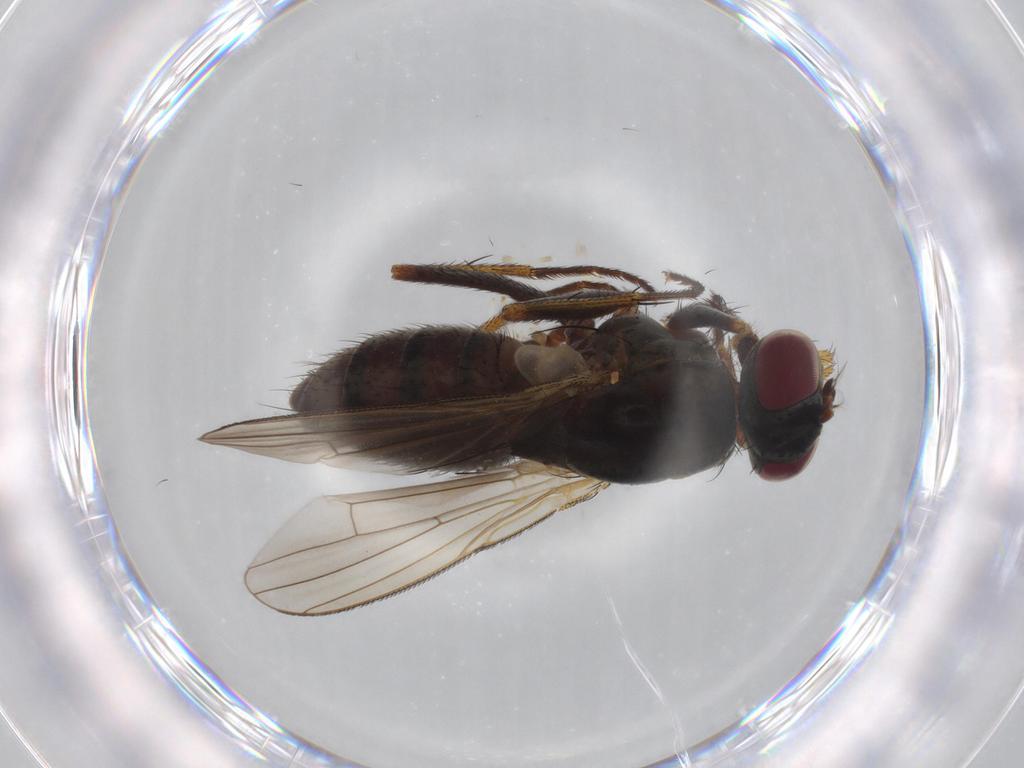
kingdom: Animalia
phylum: Arthropoda
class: Insecta
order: Diptera
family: Muscidae
